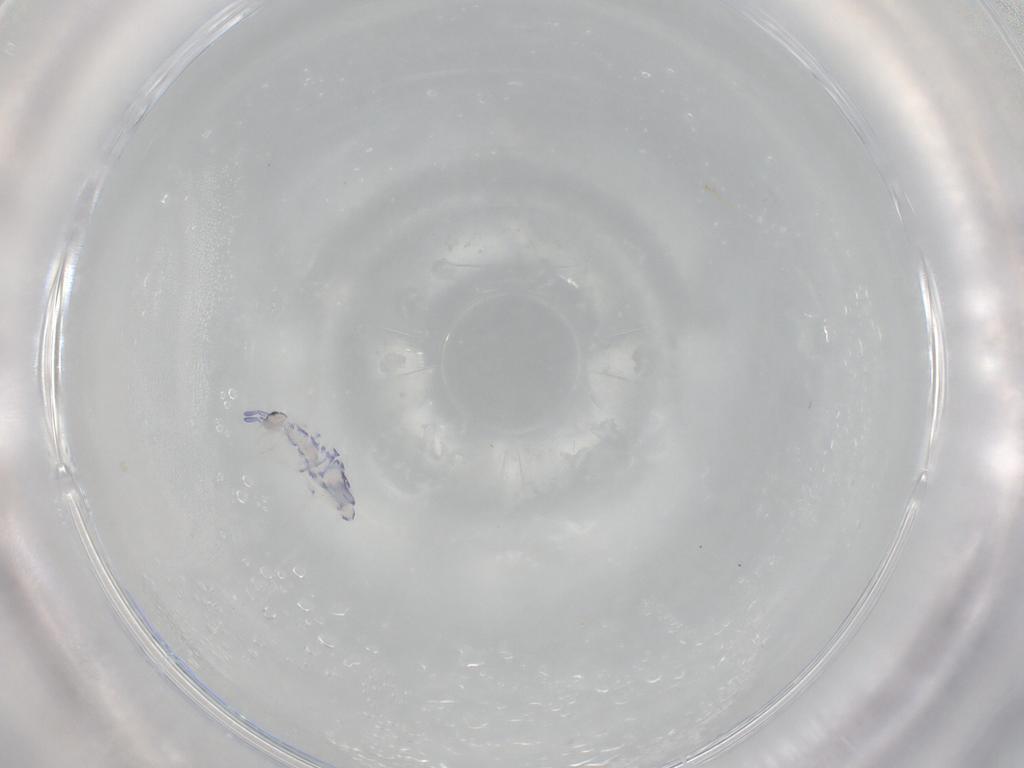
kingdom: Animalia
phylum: Arthropoda
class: Collembola
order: Entomobryomorpha
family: Entomobryidae
